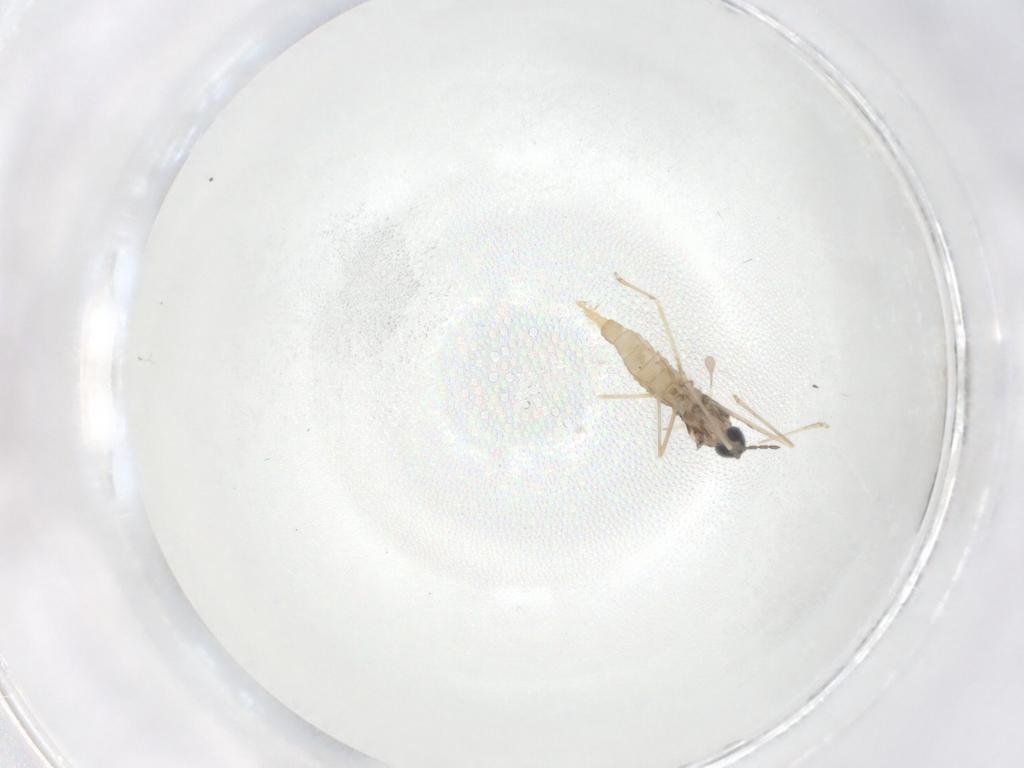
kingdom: Animalia
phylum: Arthropoda
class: Insecta
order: Diptera
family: Cecidomyiidae
